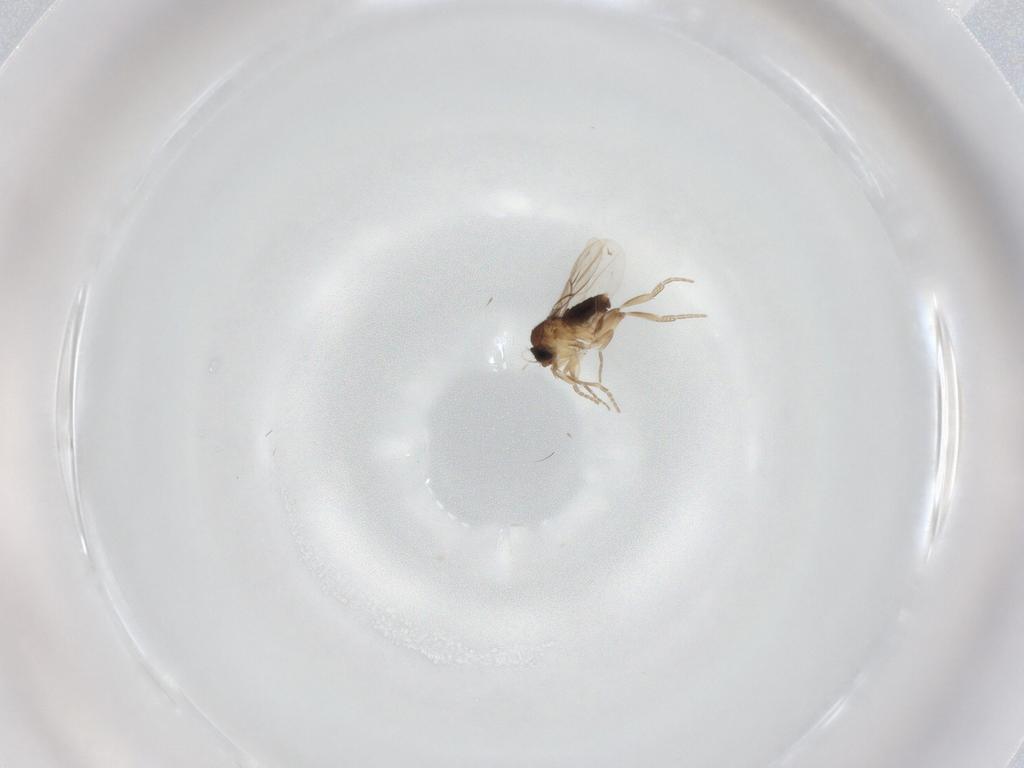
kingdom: Animalia
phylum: Arthropoda
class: Insecta
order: Diptera
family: Phoridae
